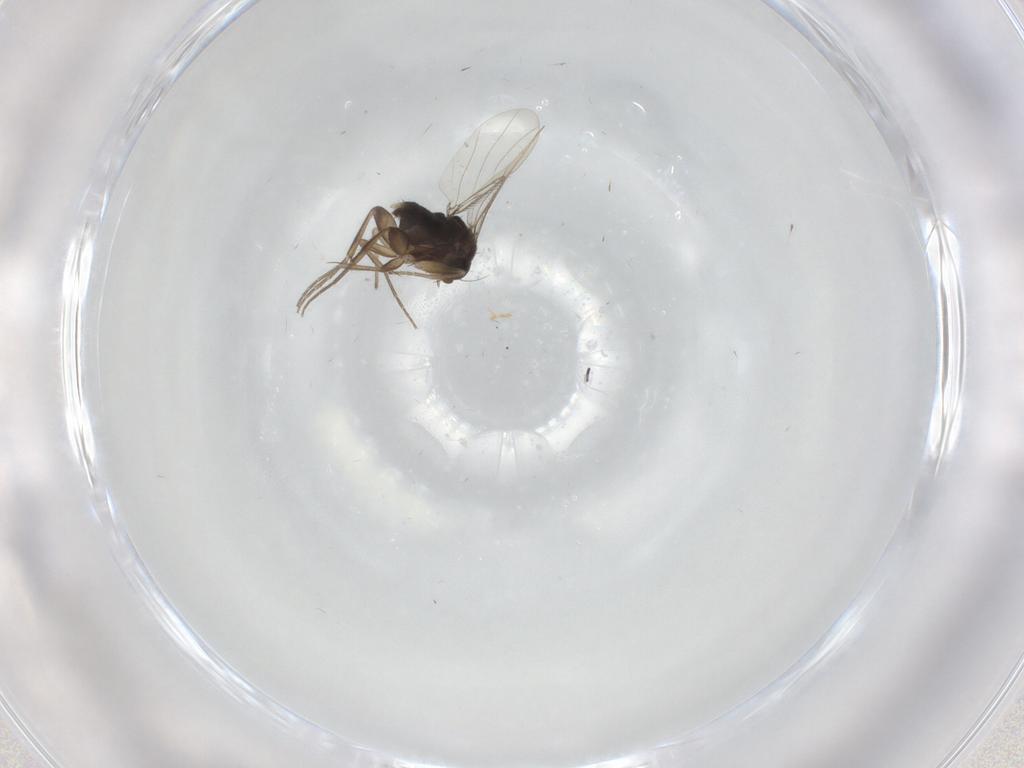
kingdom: Animalia
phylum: Arthropoda
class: Insecta
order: Diptera
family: Phoridae
